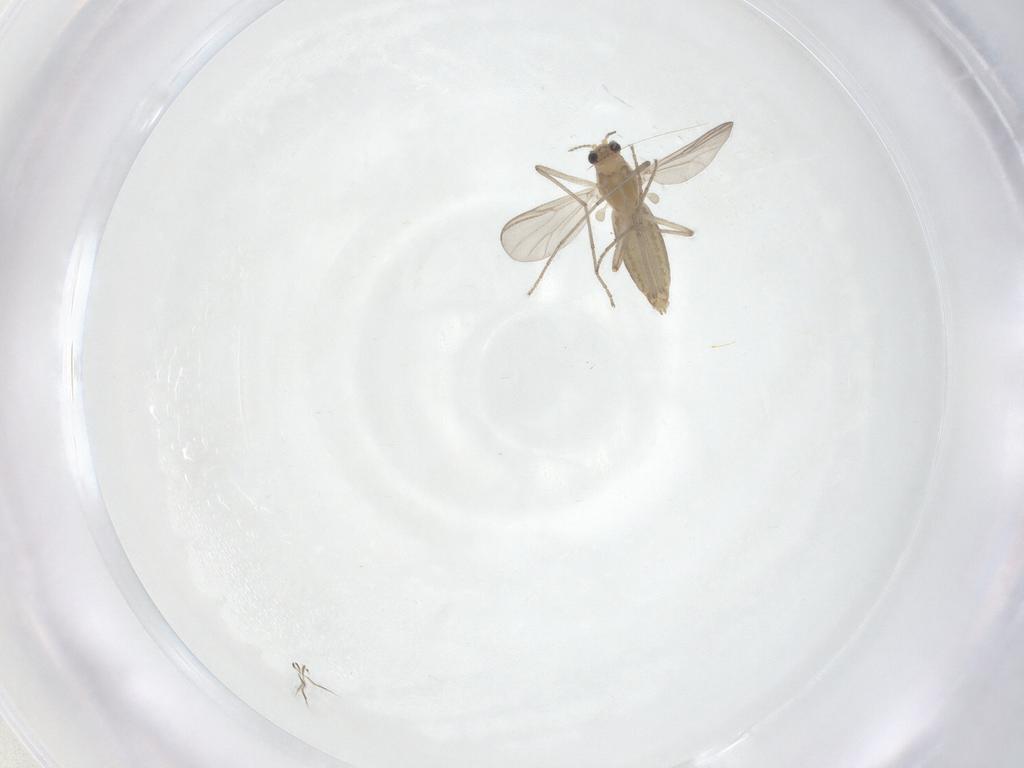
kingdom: Animalia
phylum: Arthropoda
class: Insecta
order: Diptera
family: Chironomidae
